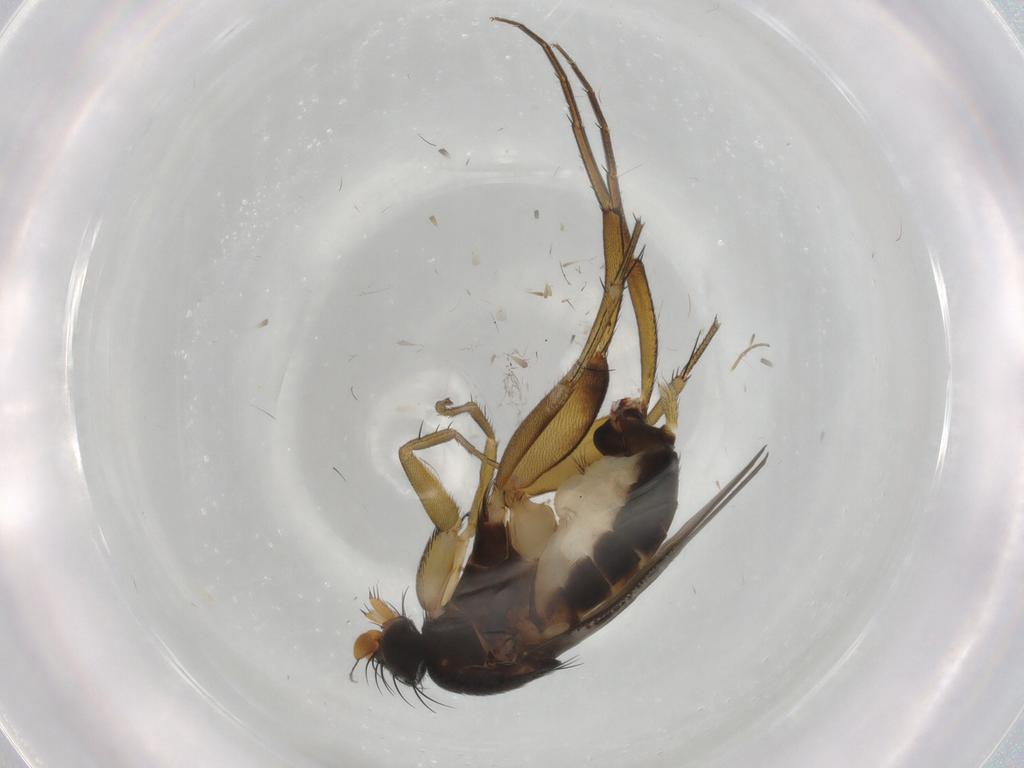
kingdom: Animalia
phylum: Arthropoda
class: Insecta
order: Diptera
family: Phoridae
